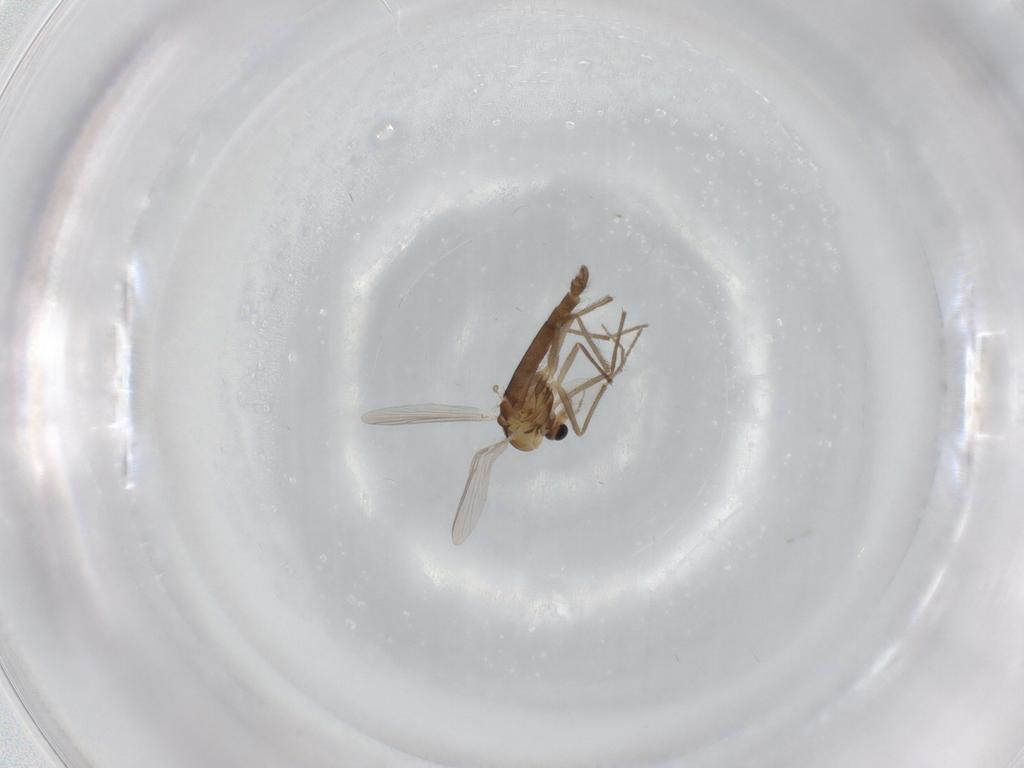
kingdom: Animalia
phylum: Arthropoda
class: Insecta
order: Diptera
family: Chironomidae
